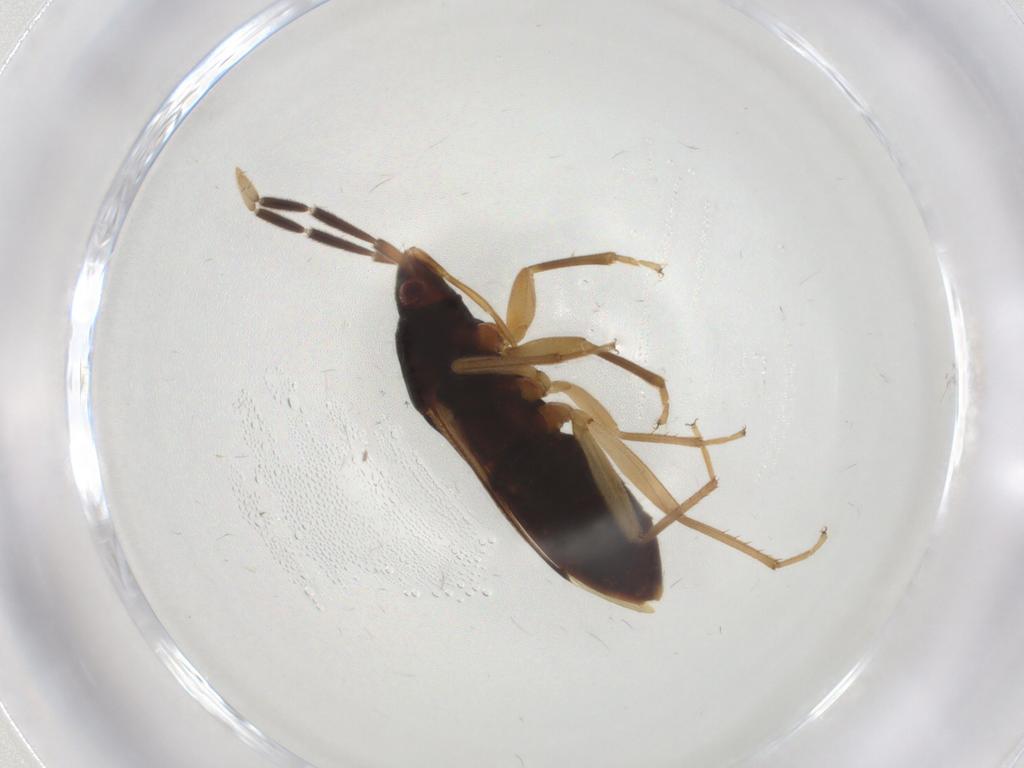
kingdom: Animalia
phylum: Arthropoda
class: Insecta
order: Hemiptera
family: Rhyparochromidae
